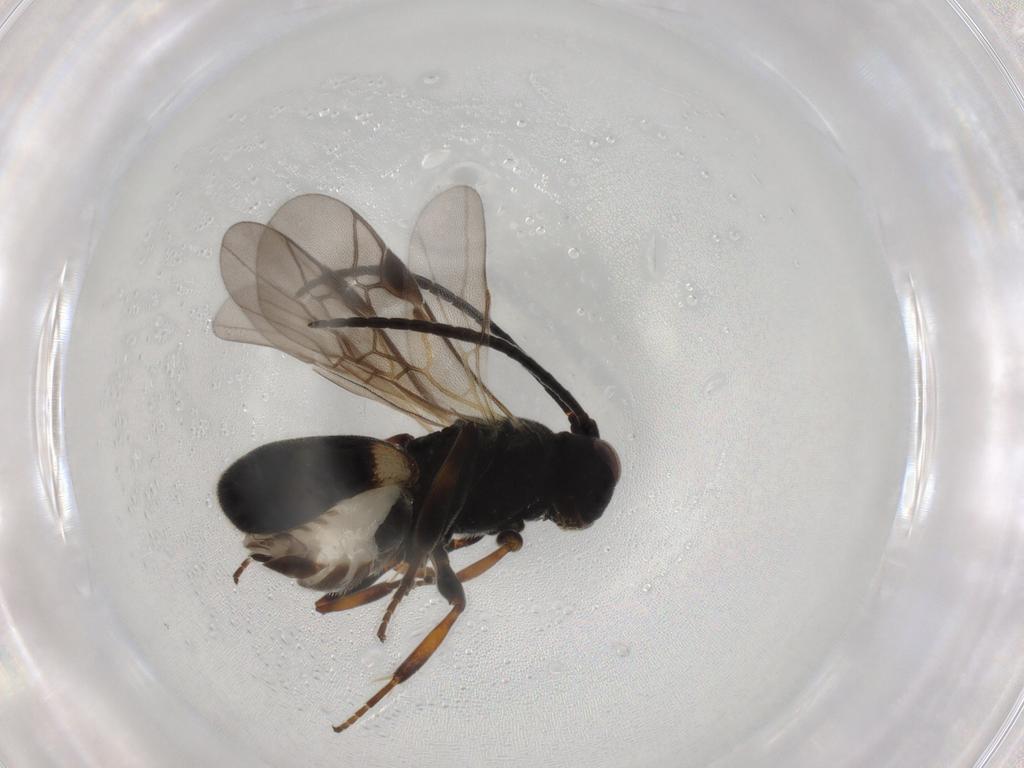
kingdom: Animalia
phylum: Arthropoda
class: Insecta
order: Hymenoptera
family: Braconidae
